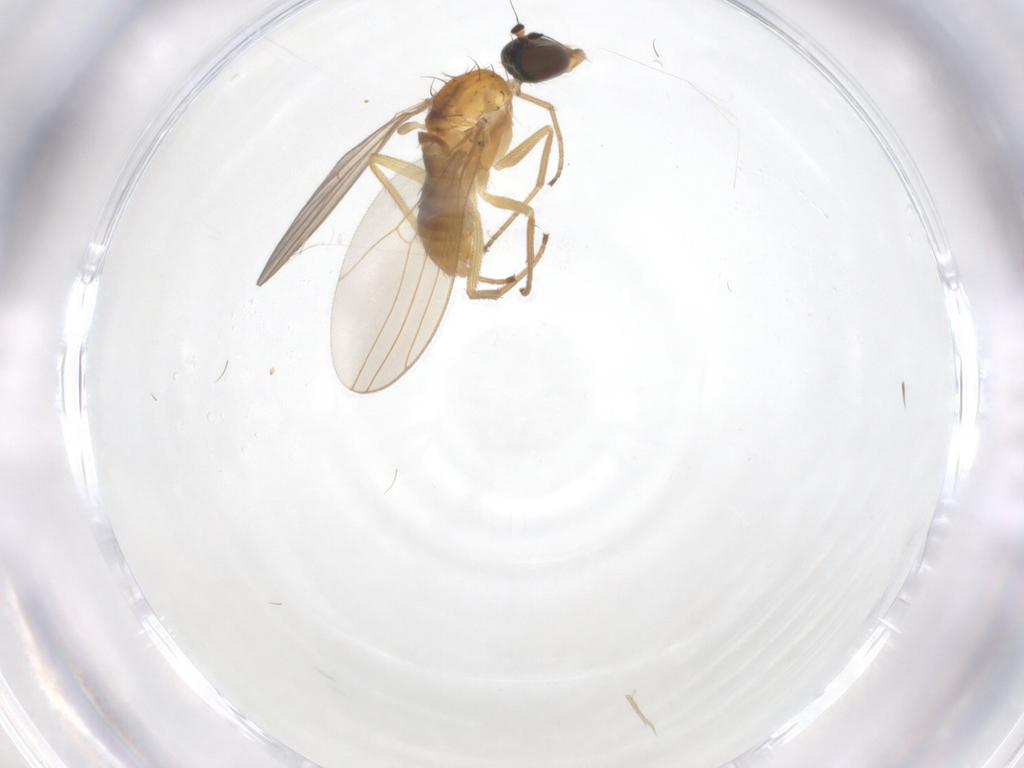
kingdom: Animalia
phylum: Arthropoda
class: Insecta
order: Diptera
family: Dolichopodidae
